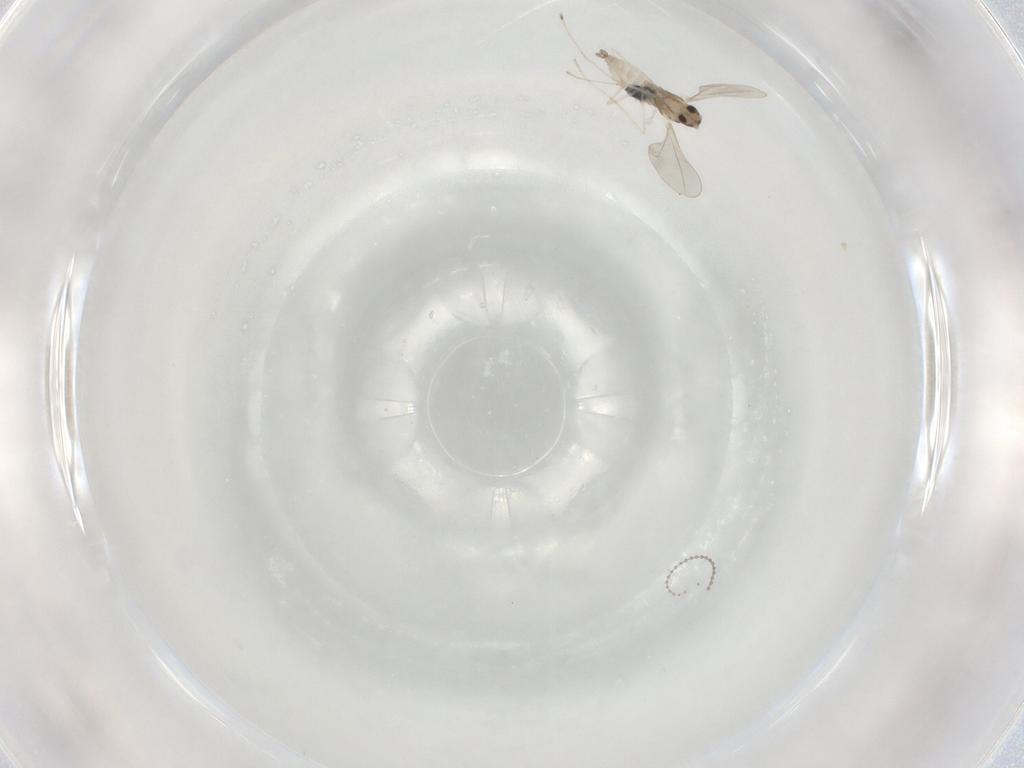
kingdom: Animalia
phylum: Arthropoda
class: Insecta
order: Diptera
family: Cecidomyiidae
